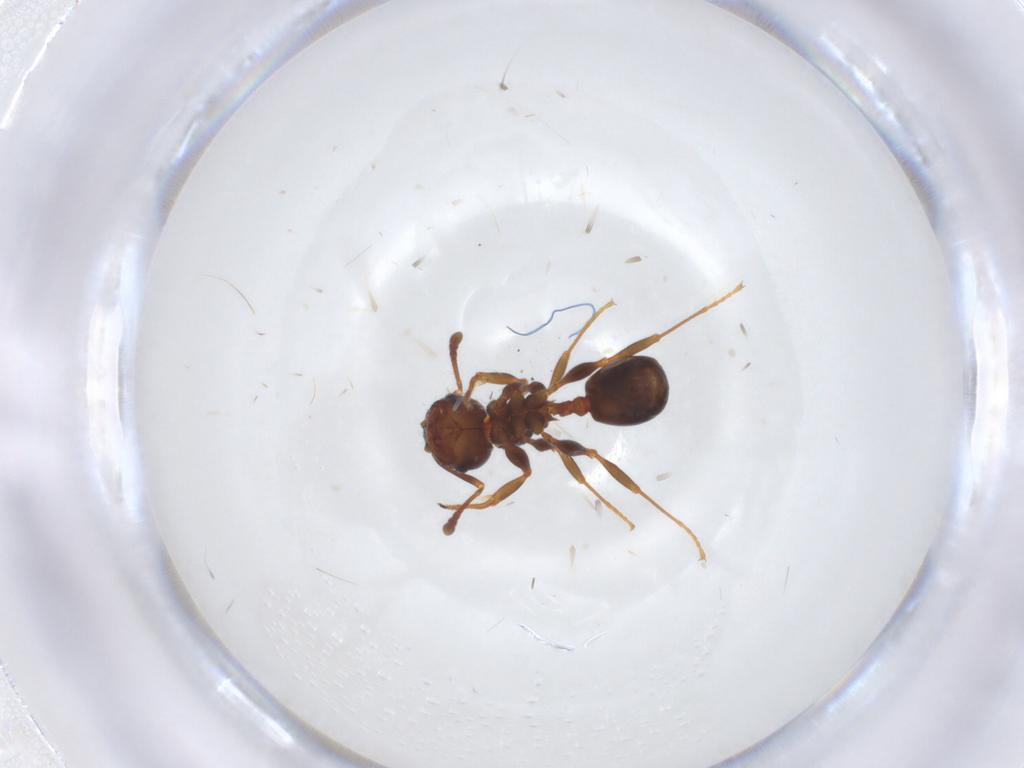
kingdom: Animalia
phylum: Arthropoda
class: Insecta
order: Hymenoptera
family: Formicidae
